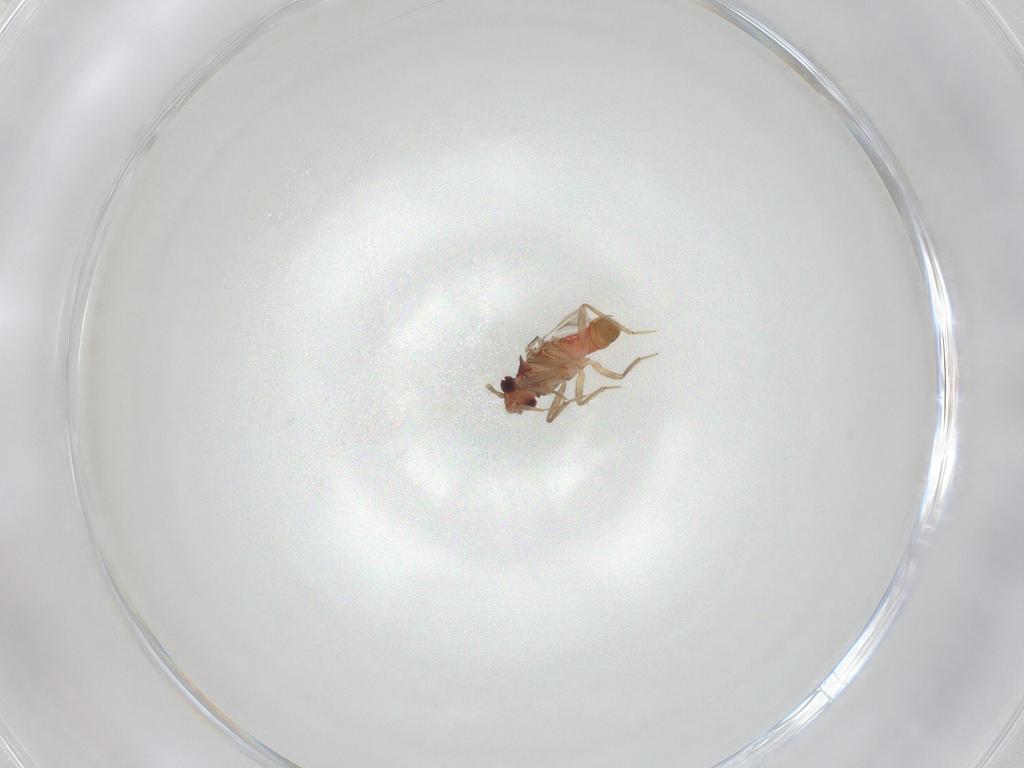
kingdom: Animalia
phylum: Arthropoda
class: Insecta
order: Hemiptera
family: Ceratocombidae
